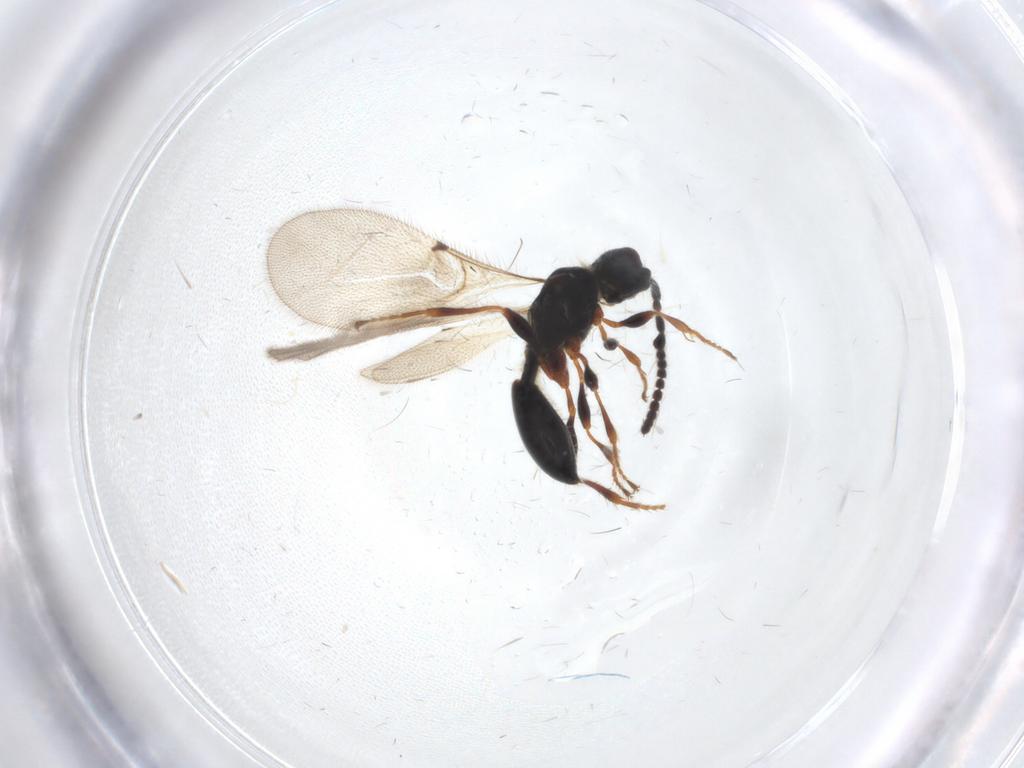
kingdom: Animalia
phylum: Arthropoda
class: Insecta
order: Hymenoptera
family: Diapriidae
